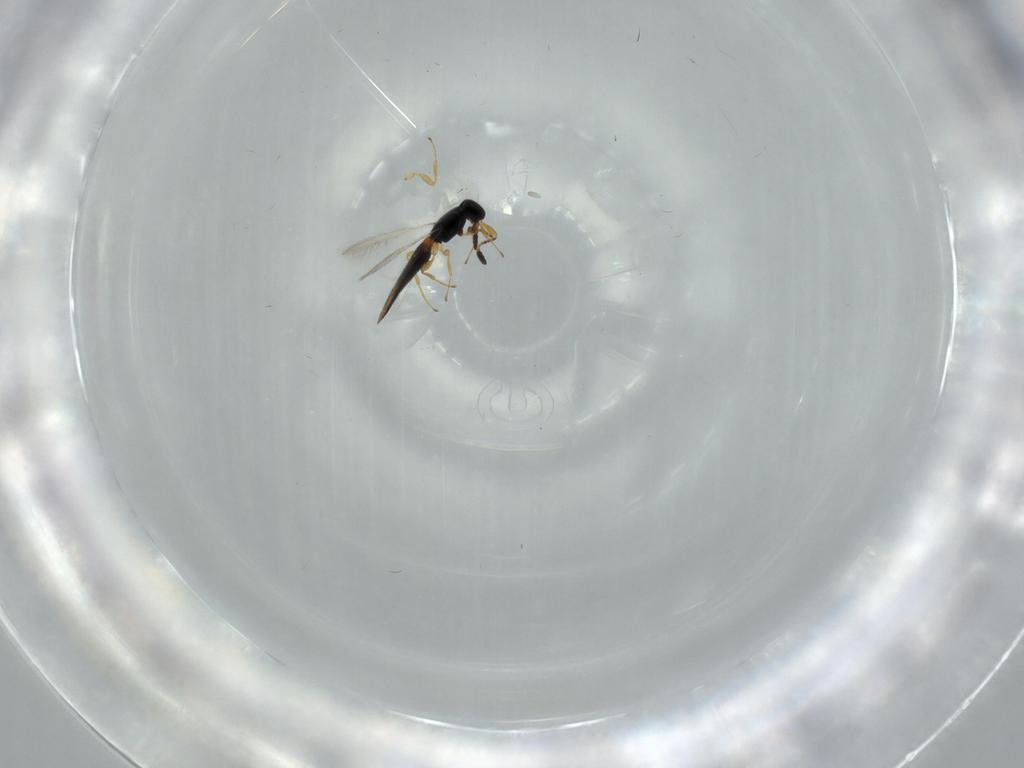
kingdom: Animalia
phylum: Arthropoda
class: Insecta
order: Hymenoptera
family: Scelionidae
